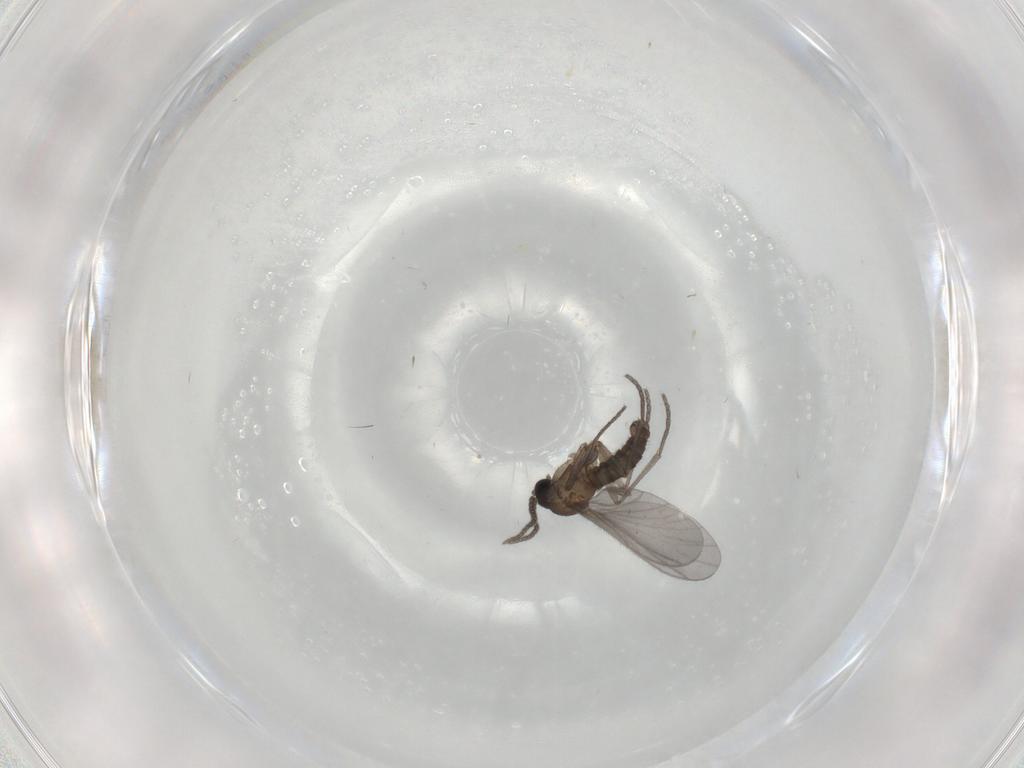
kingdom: Animalia
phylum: Arthropoda
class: Insecta
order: Diptera
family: Sciaridae
